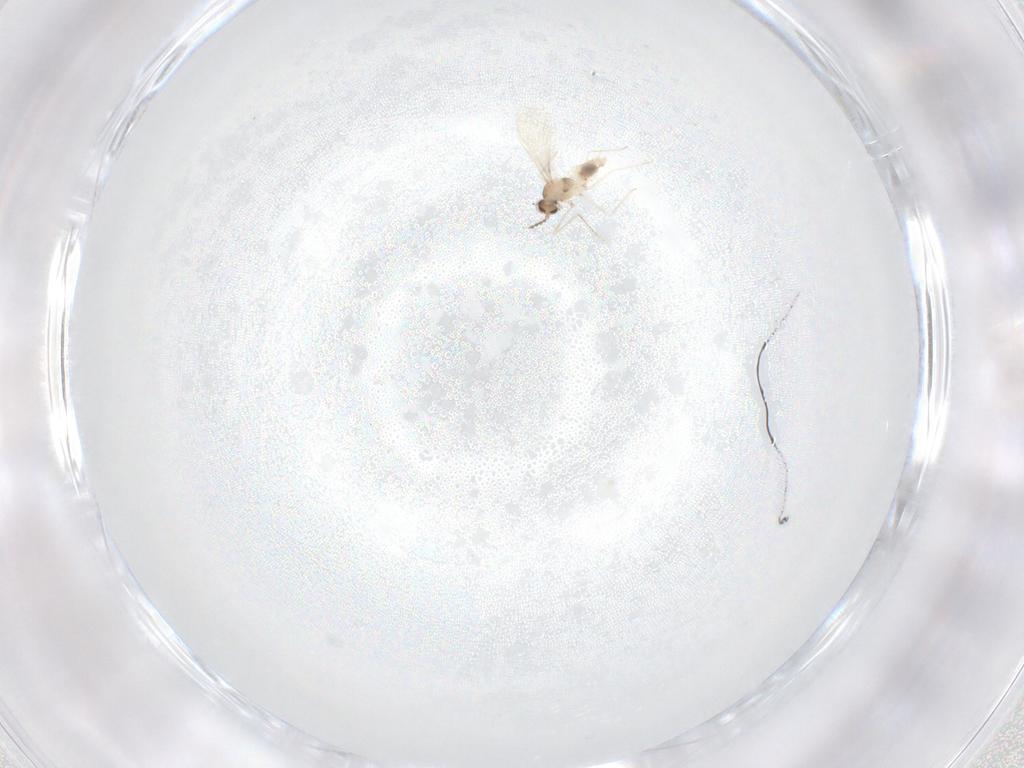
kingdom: Animalia
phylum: Arthropoda
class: Insecta
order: Diptera
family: Cecidomyiidae
